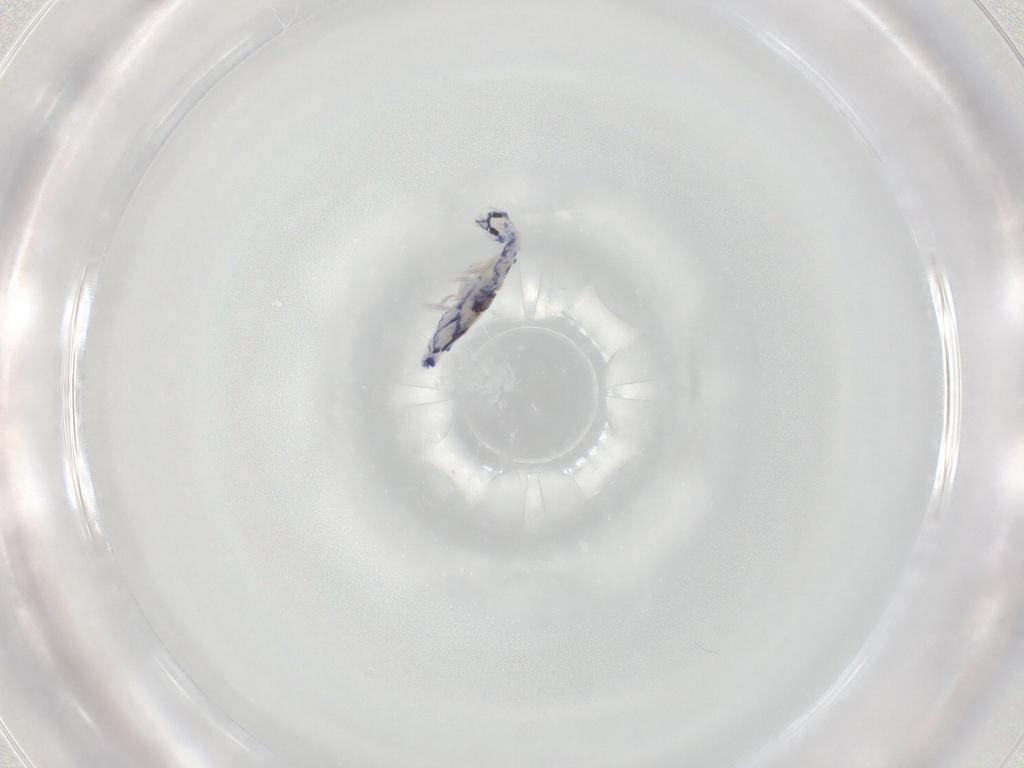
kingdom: Animalia
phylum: Arthropoda
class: Collembola
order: Entomobryomorpha
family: Entomobryidae
